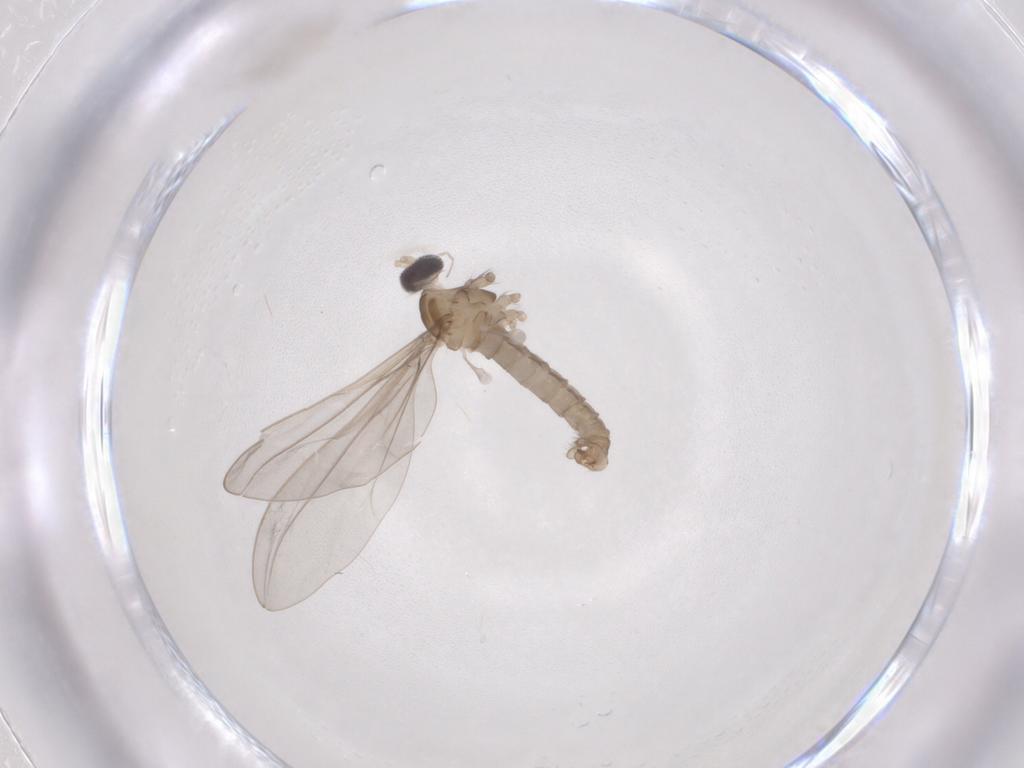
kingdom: Animalia
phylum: Arthropoda
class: Insecta
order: Diptera
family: Cecidomyiidae
